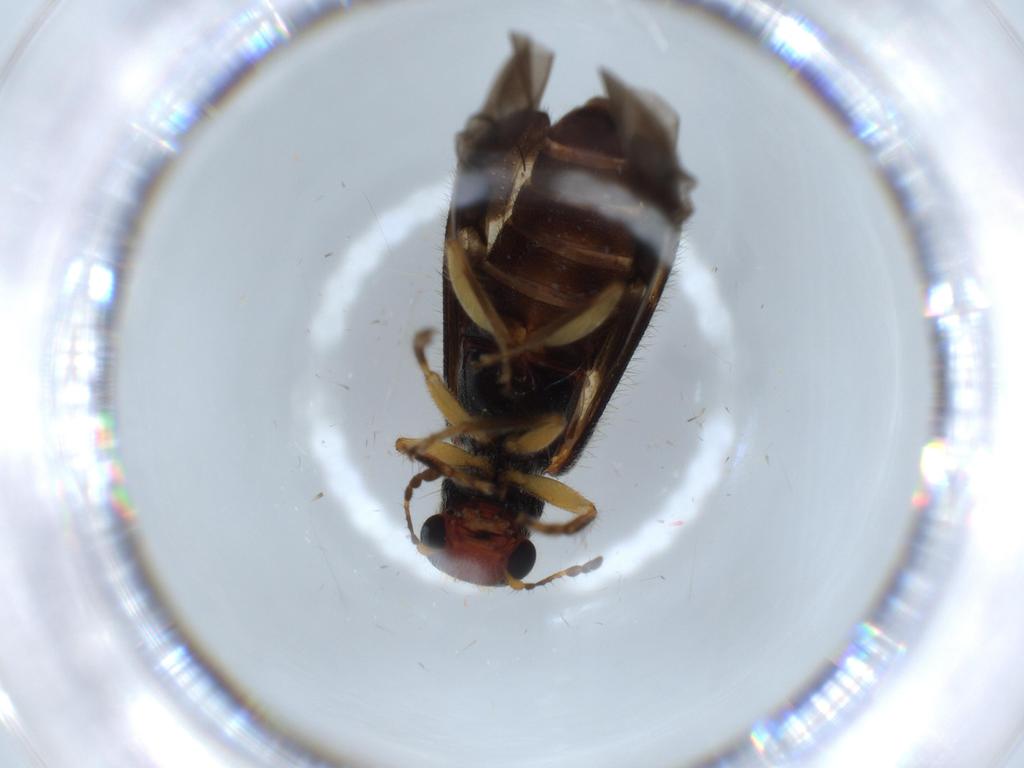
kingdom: Animalia
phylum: Arthropoda
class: Insecta
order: Coleoptera
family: Cleridae
